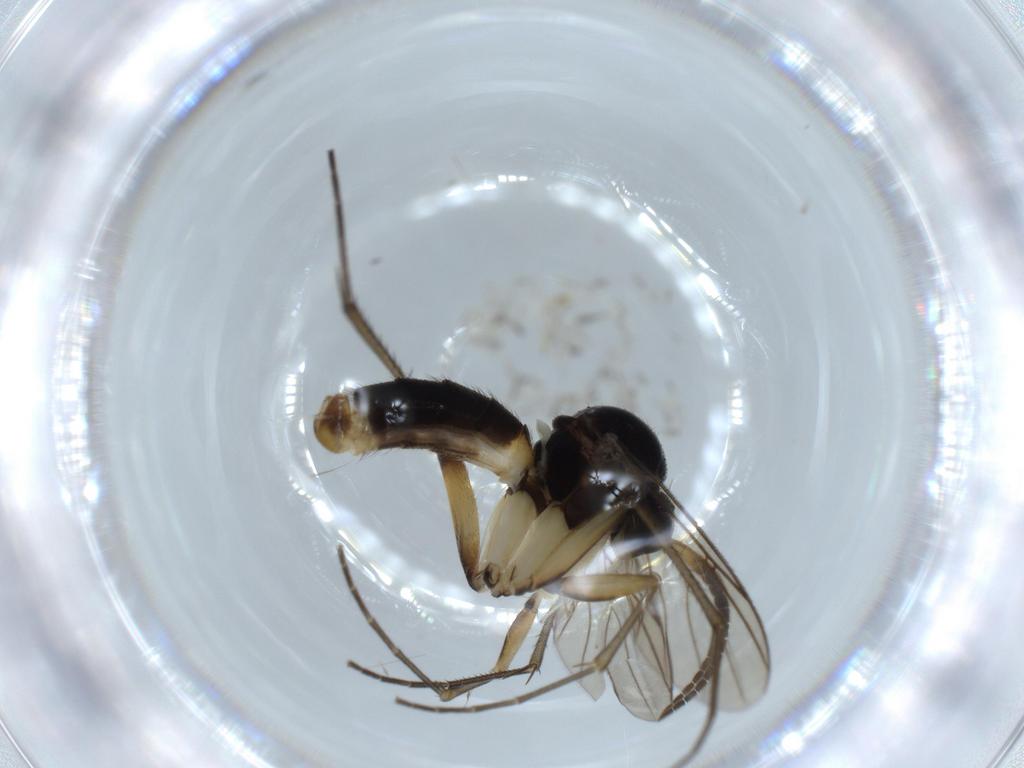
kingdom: Animalia
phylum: Arthropoda
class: Insecta
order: Diptera
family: Sciaridae
